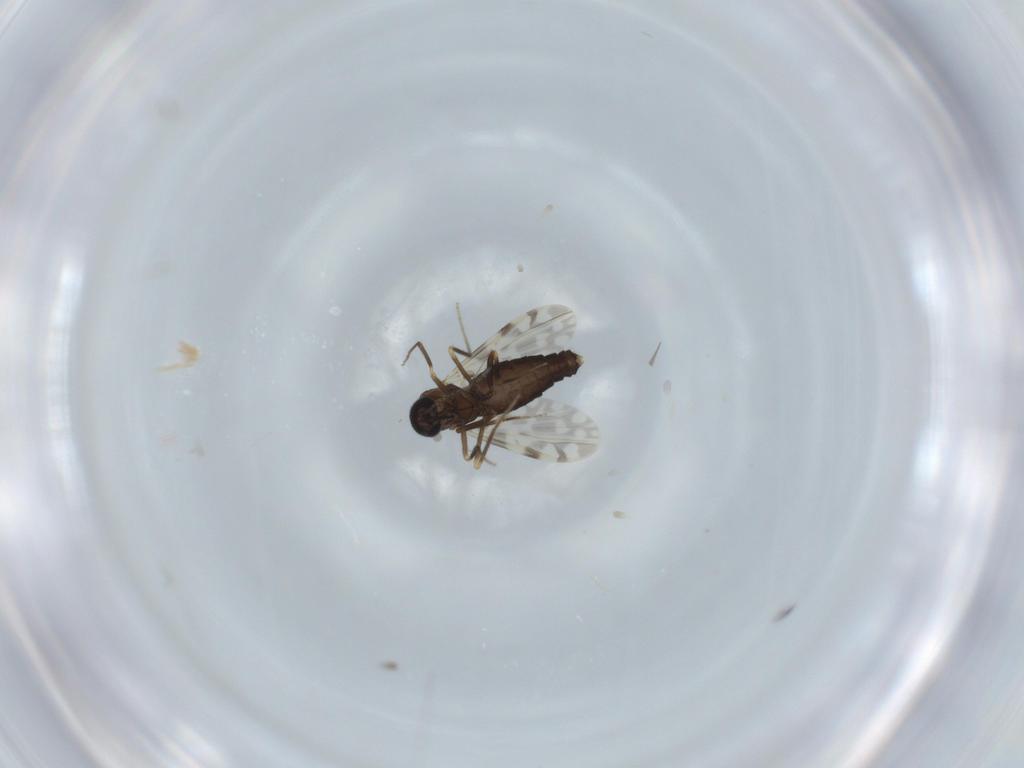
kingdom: Animalia
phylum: Arthropoda
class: Insecta
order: Diptera
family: Ceratopogonidae
